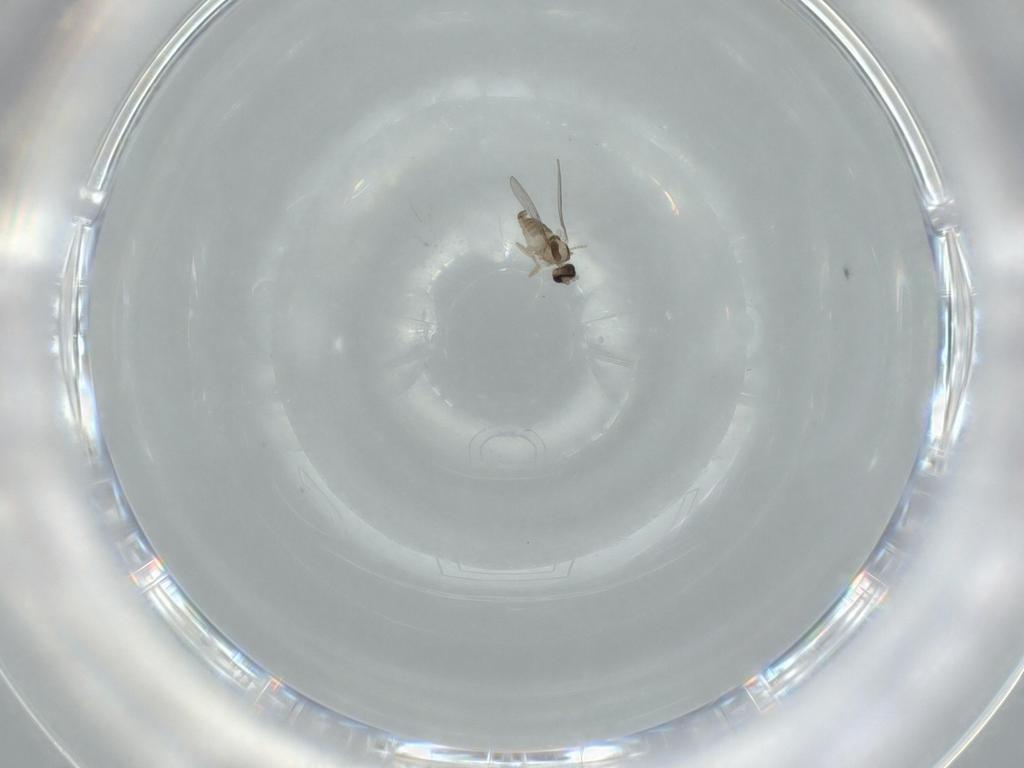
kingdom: Animalia
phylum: Arthropoda
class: Insecta
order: Diptera
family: Cecidomyiidae
